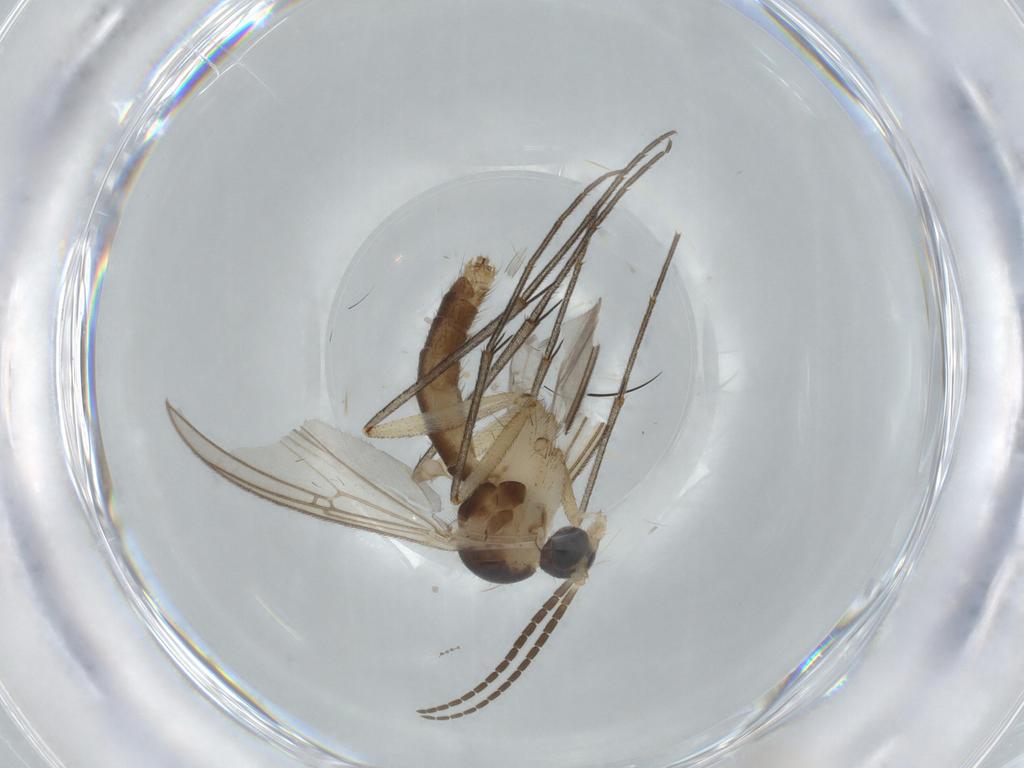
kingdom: Animalia
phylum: Arthropoda
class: Insecta
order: Diptera
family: Mycetophilidae
